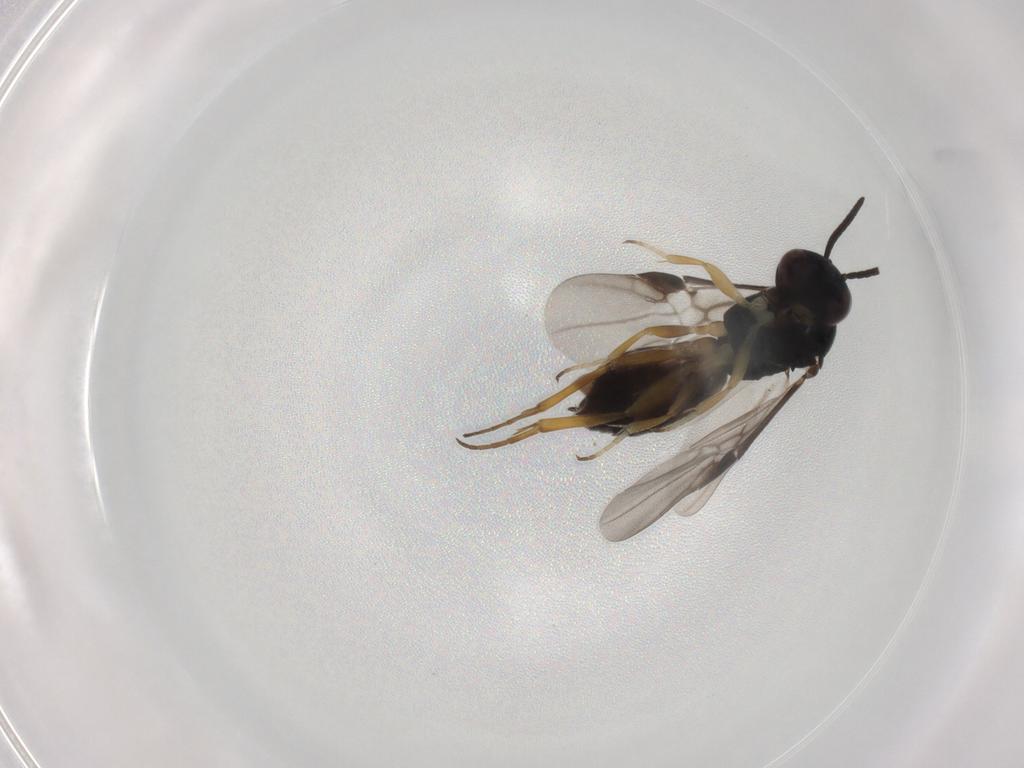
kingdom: Animalia
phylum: Arthropoda
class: Insecta
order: Hymenoptera
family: Braconidae
